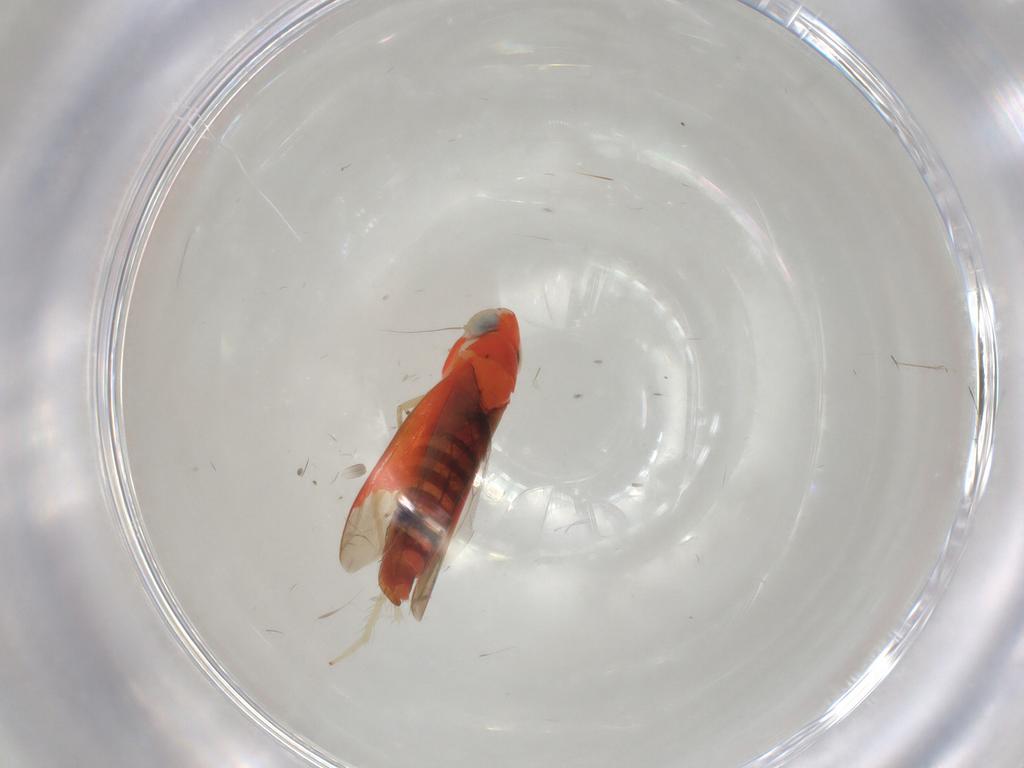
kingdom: Animalia
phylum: Arthropoda
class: Insecta
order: Hemiptera
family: Cicadellidae
